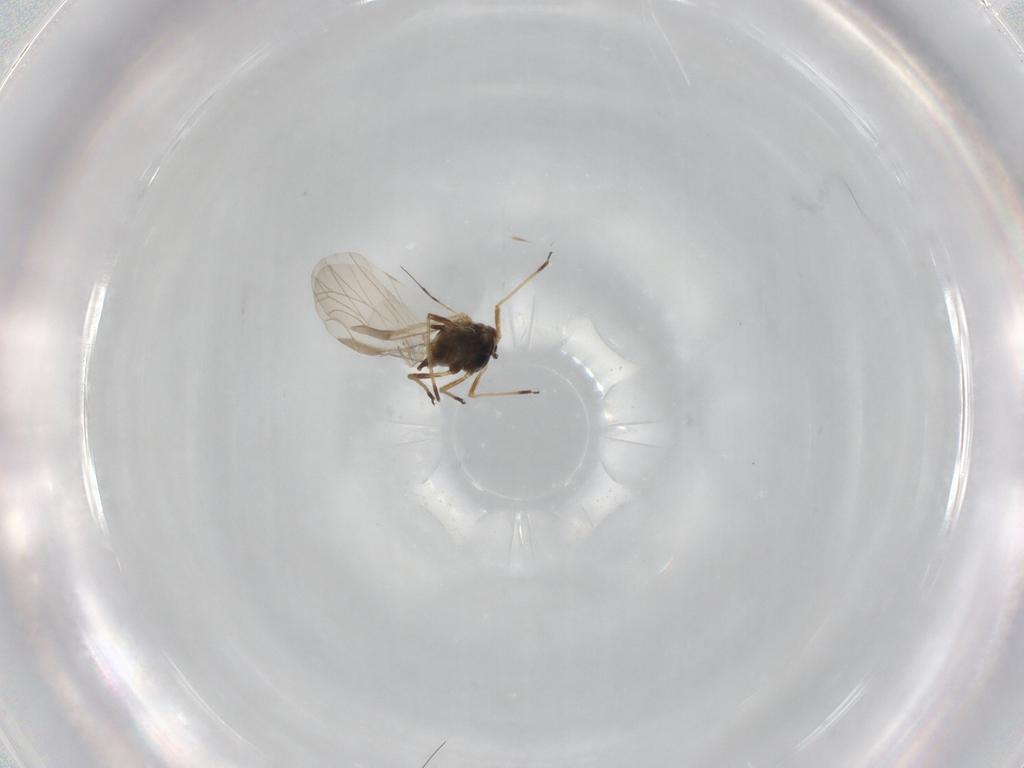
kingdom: Animalia
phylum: Arthropoda
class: Insecta
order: Hemiptera
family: Aphididae
